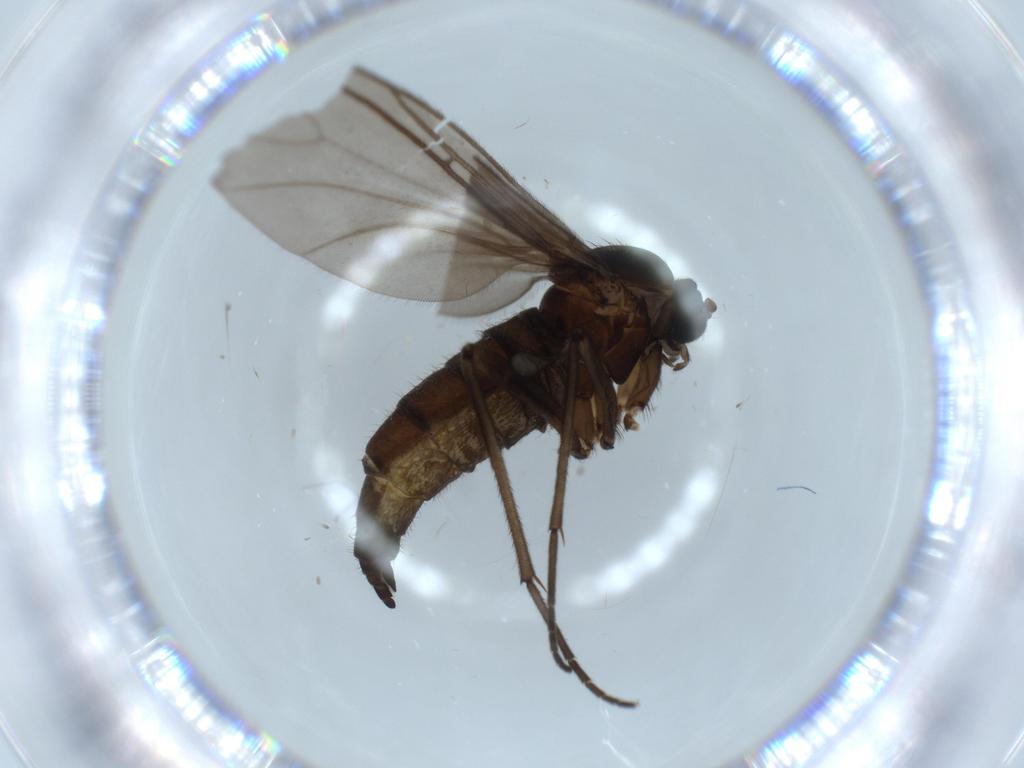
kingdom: Animalia
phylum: Arthropoda
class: Insecta
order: Diptera
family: Sciaridae
